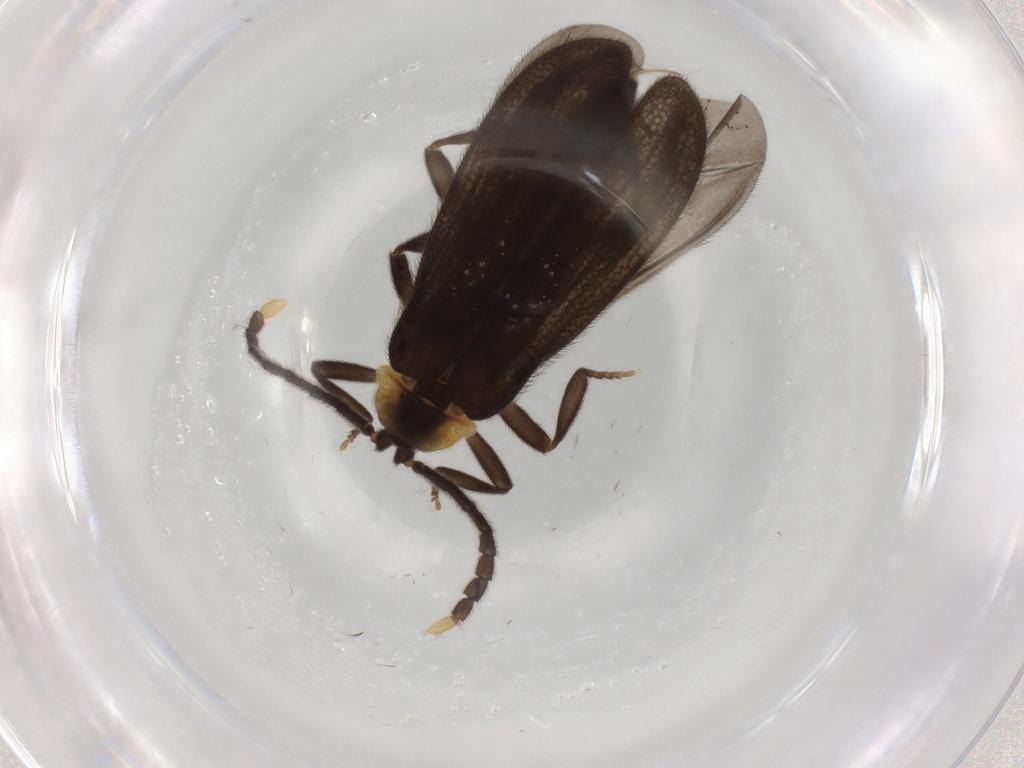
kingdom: Animalia
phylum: Arthropoda
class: Insecta
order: Coleoptera
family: Lycidae
